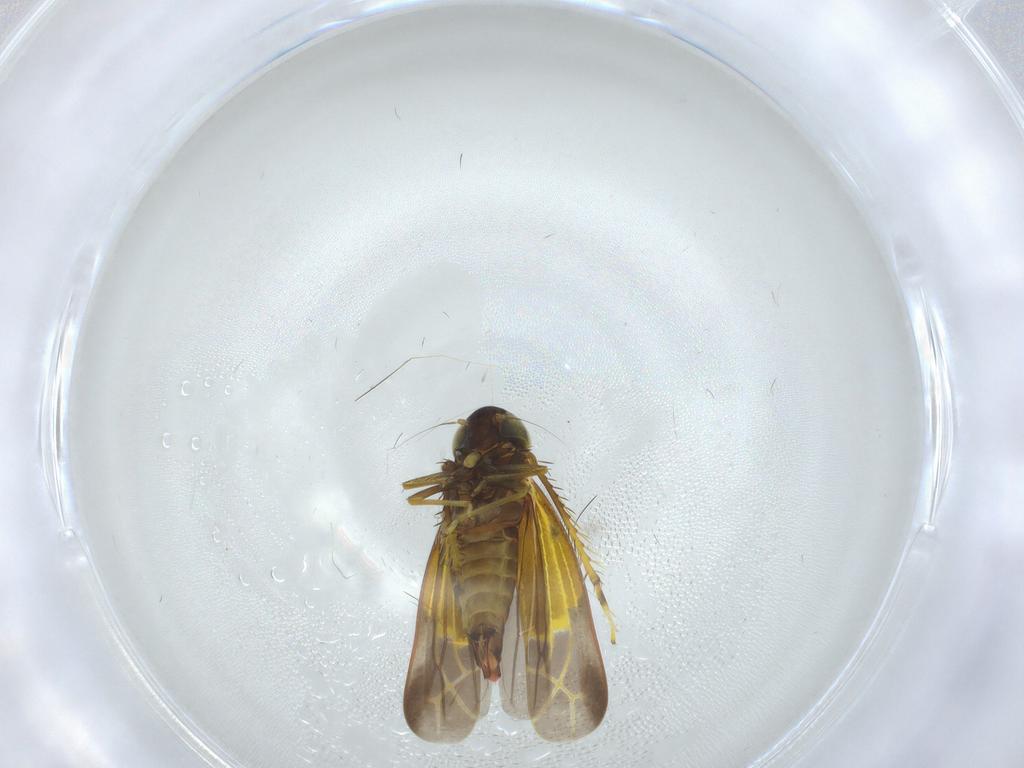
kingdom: Animalia
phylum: Arthropoda
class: Insecta
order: Hemiptera
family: Cicadellidae
